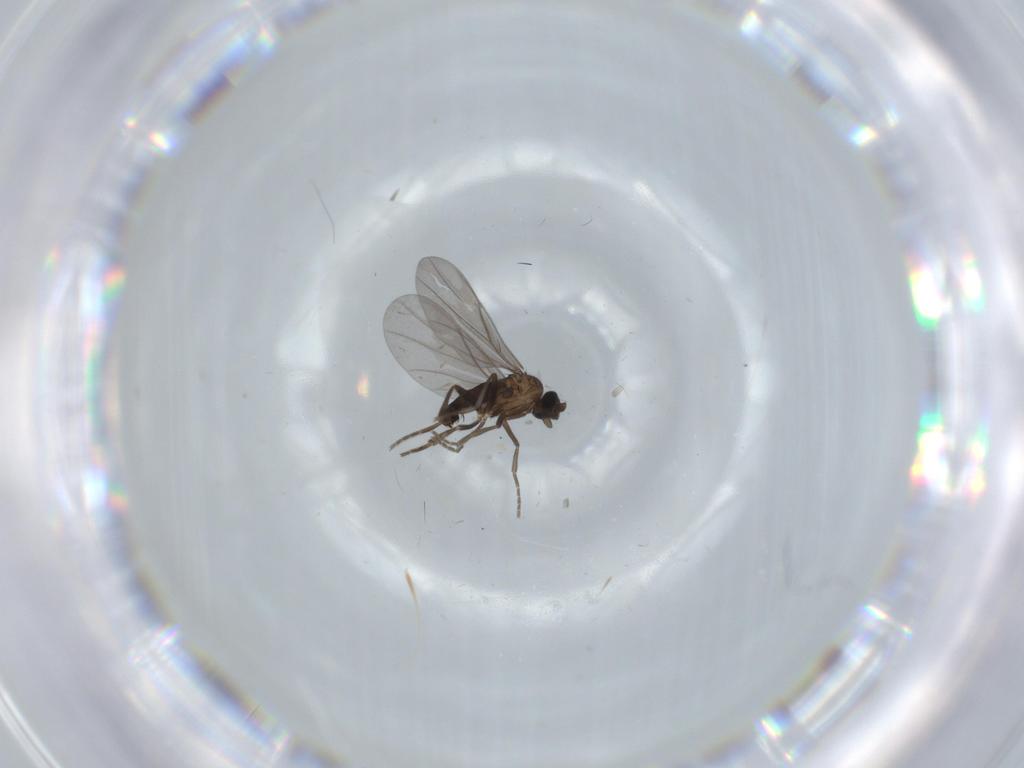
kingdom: Animalia
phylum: Arthropoda
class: Insecta
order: Diptera
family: Phoridae
